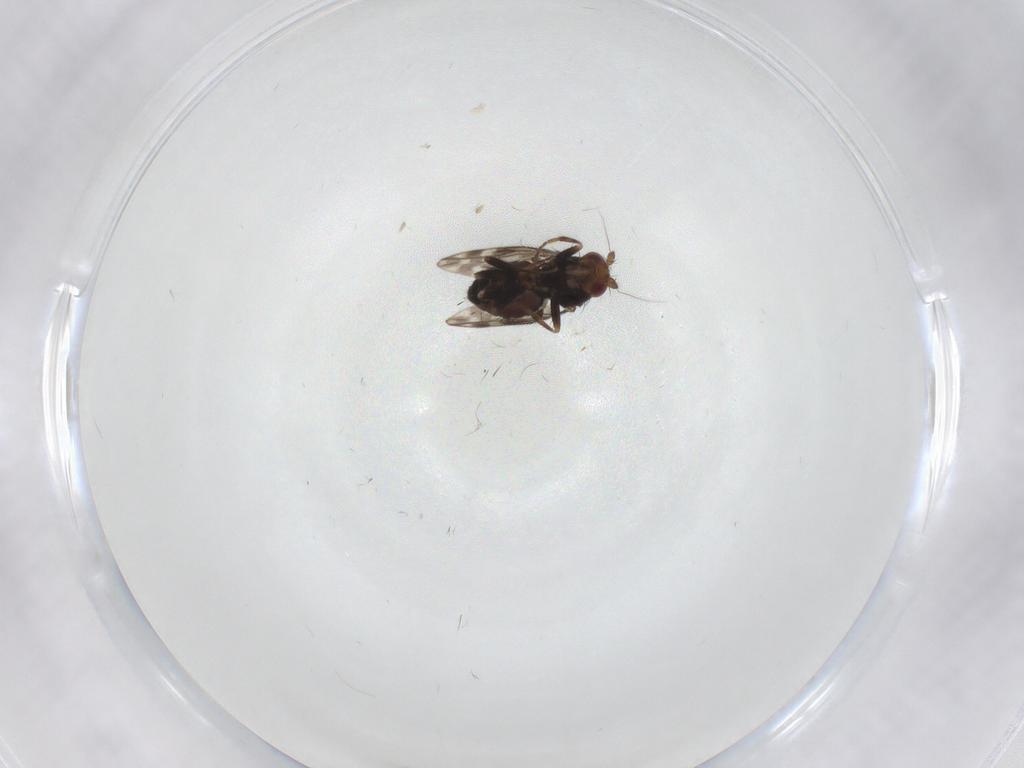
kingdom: Animalia
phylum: Arthropoda
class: Insecta
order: Diptera
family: Sphaeroceridae
